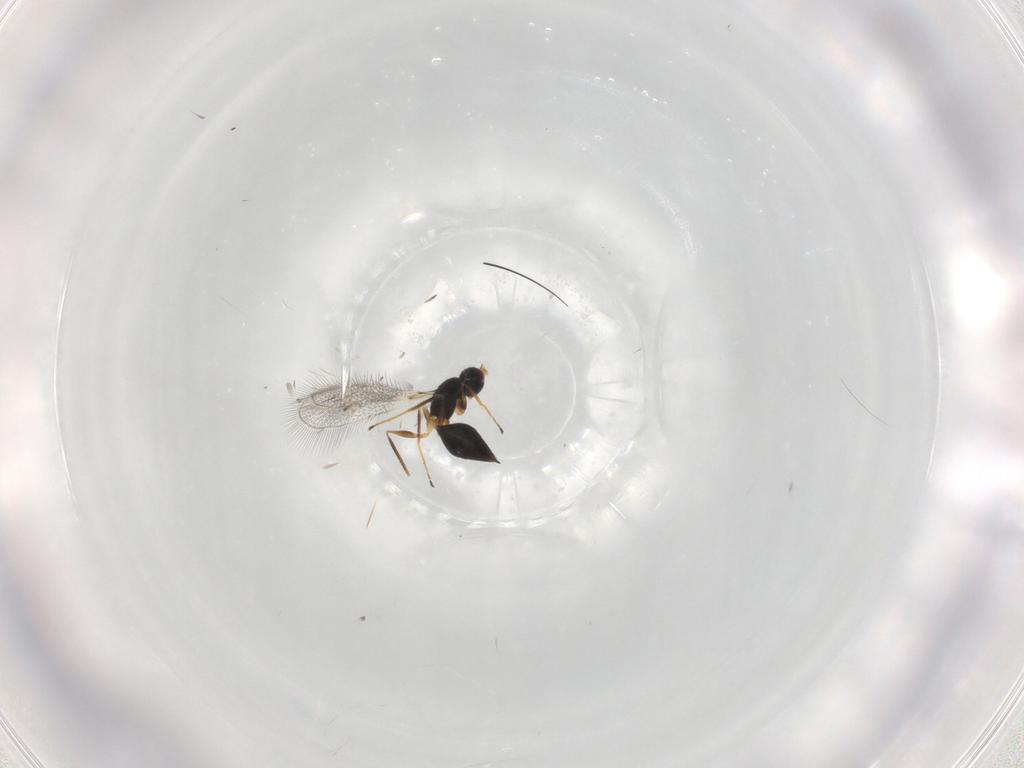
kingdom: Animalia
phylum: Arthropoda
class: Insecta
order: Hymenoptera
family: Mymaridae
